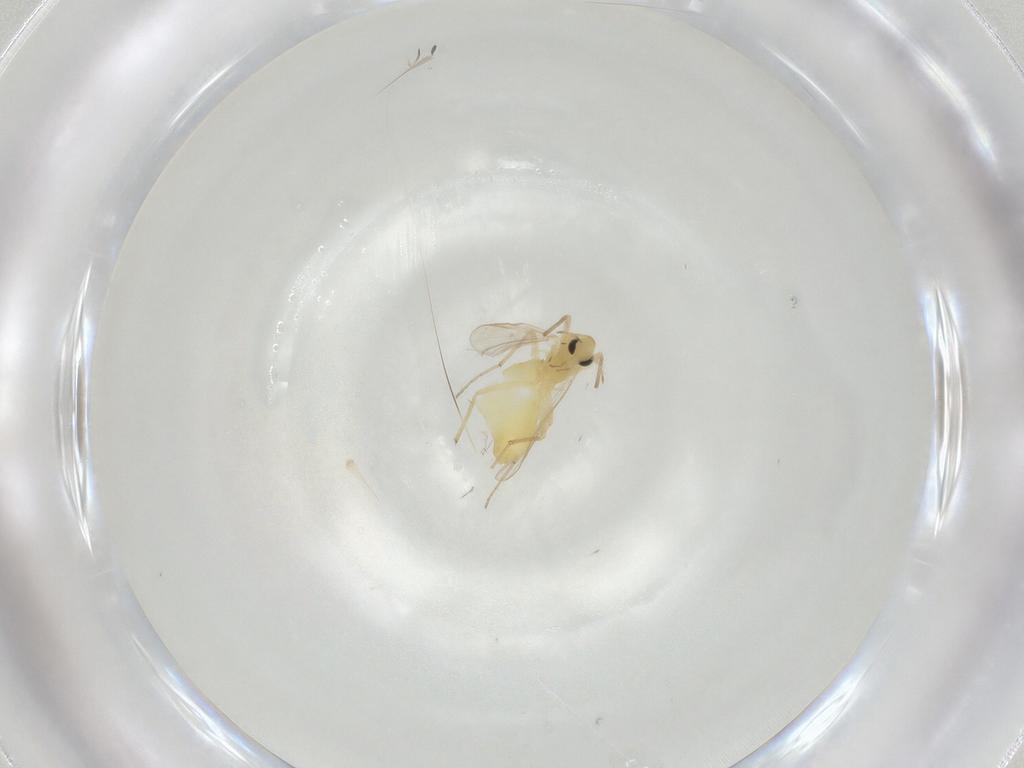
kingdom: Animalia
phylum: Arthropoda
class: Insecta
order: Diptera
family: Chironomidae
